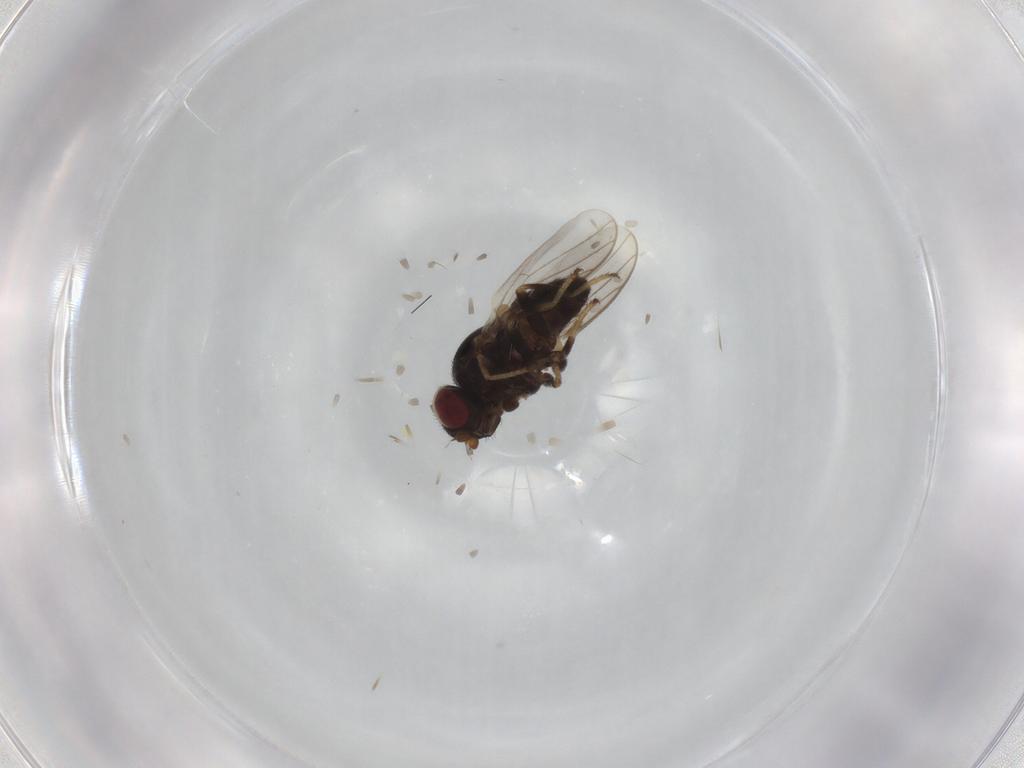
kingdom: Animalia
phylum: Arthropoda
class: Insecta
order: Diptera
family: Chloropidae
